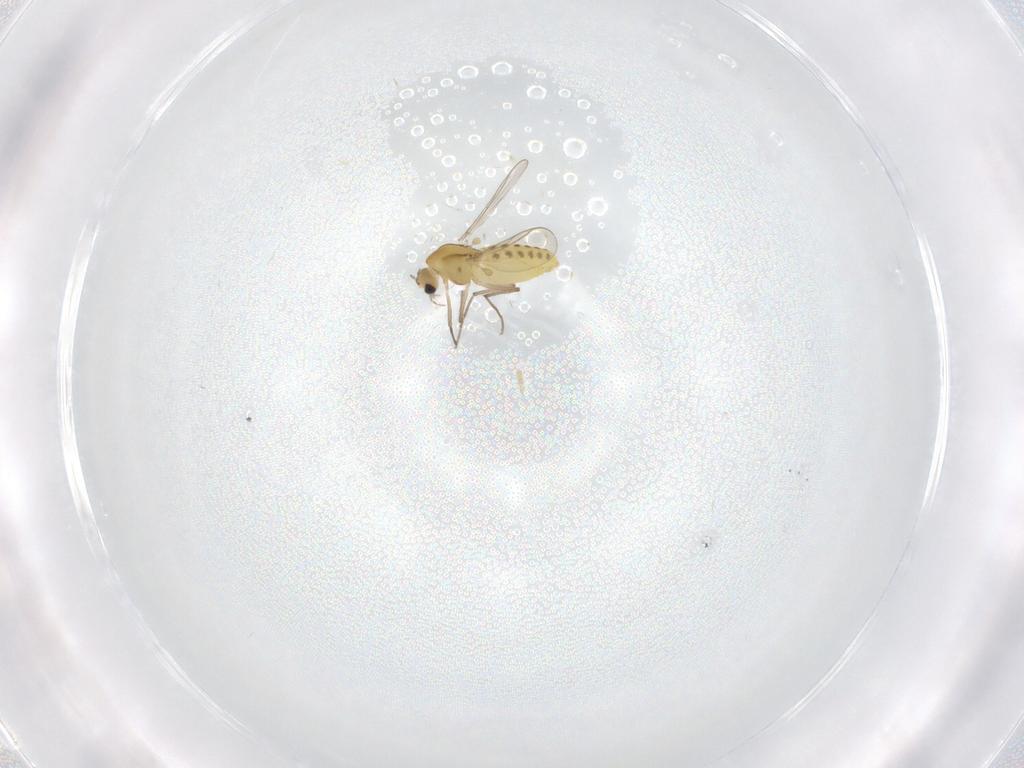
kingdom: Animalia
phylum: Arthropoda
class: Insecta
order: Diptera
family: Chironomidae
